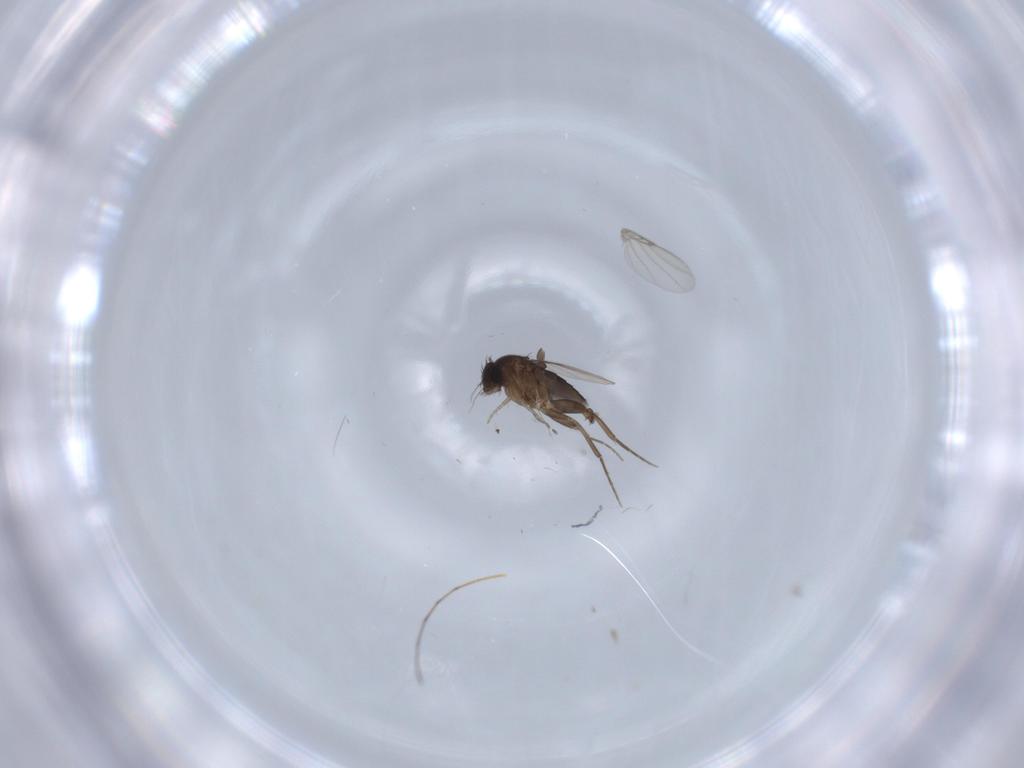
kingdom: Animalia
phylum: Arthropoda
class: Insecta
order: Diptera
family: Phoridae
